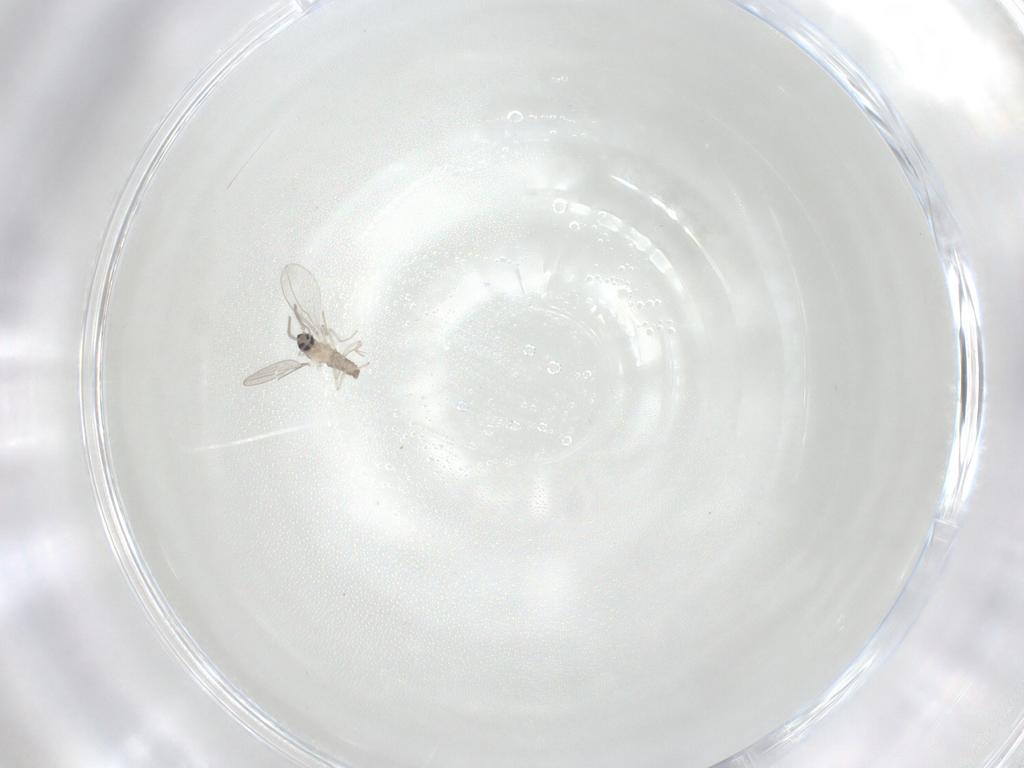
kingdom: Animalia
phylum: Arthropoda
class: Insecta
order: Diptera
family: Cecidomyiidae
